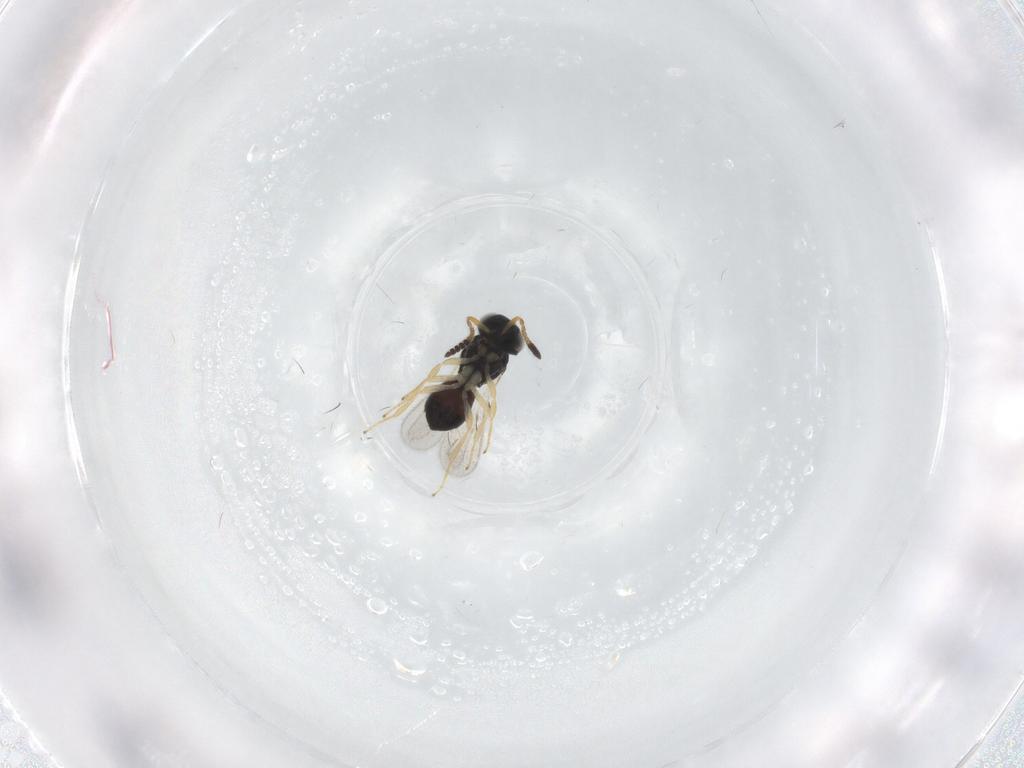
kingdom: Animalia
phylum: Arthropoda
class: Insecta
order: Hymenoptera
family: Scelionidae
